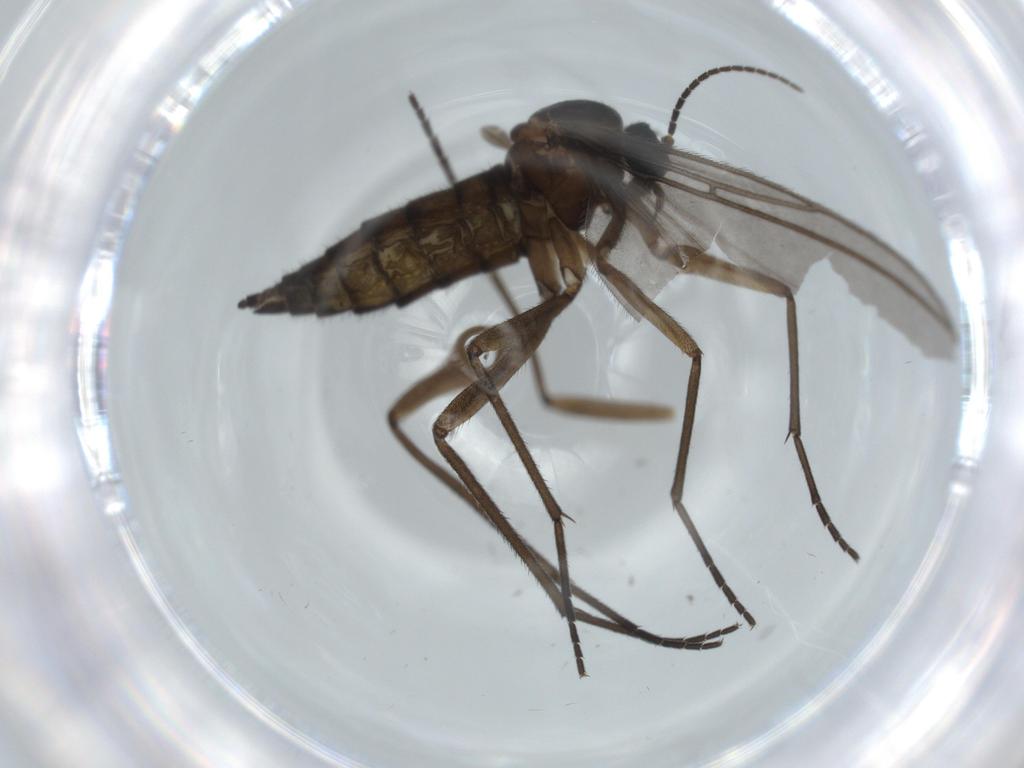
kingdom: Animalia
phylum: Arthropoda
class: Insecta
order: Diptera
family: Sciaridae
